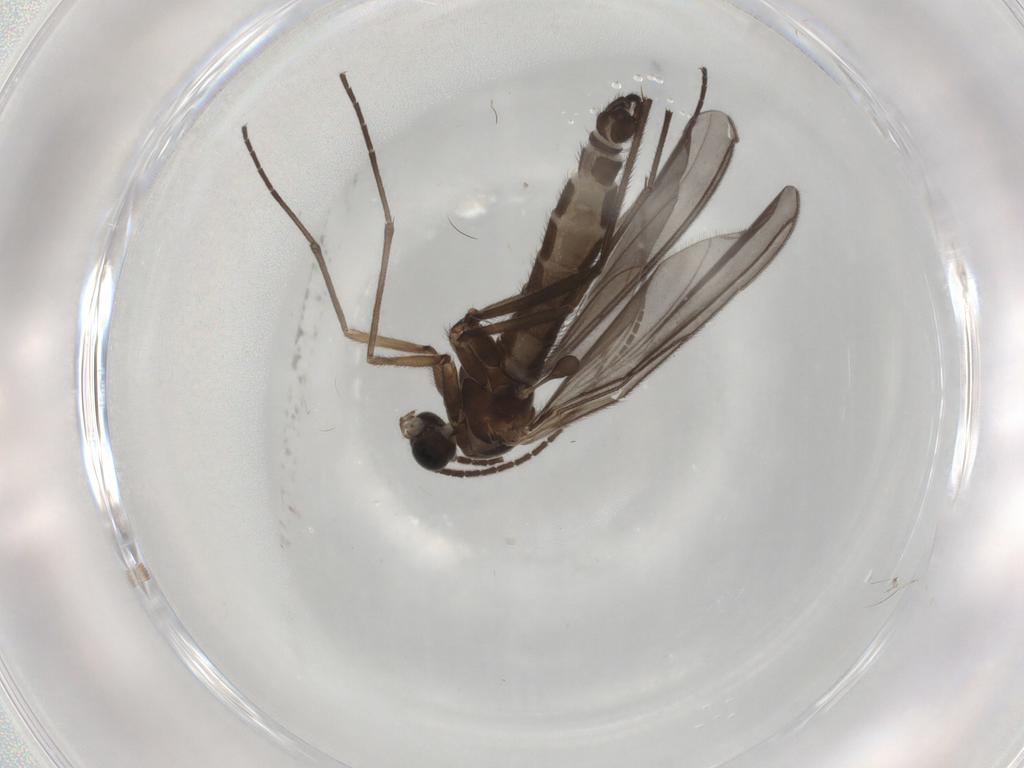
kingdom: Animalia
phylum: Arthropoda
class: Insecta
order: Diptera
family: Sciaridae
